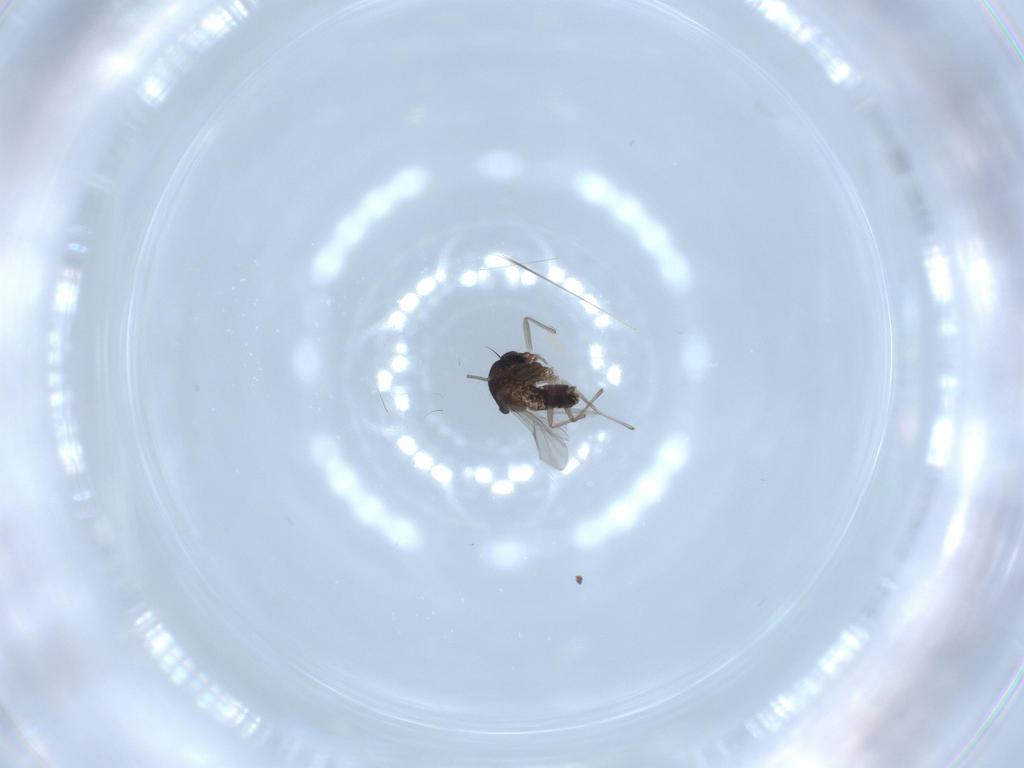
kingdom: Animalia
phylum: Arthropoda
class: Insecta
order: Diptera
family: Chironomidae
